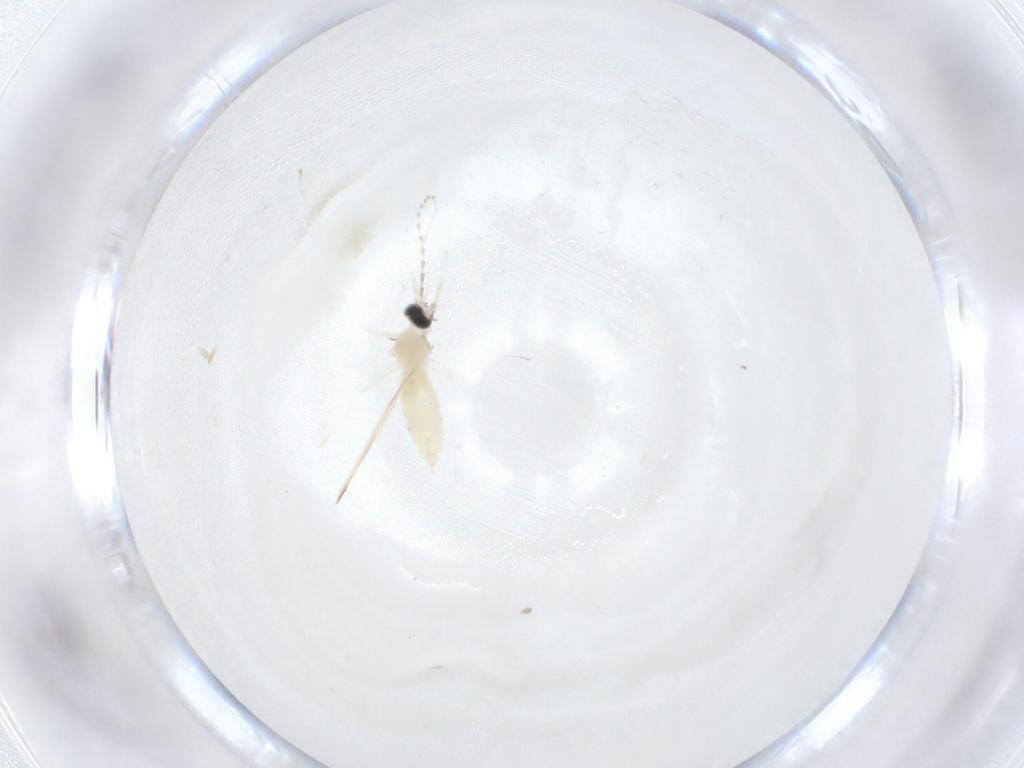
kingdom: Animalia
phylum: Arthropoda
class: Insecta
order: Diptera
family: Cecidomyiidae
